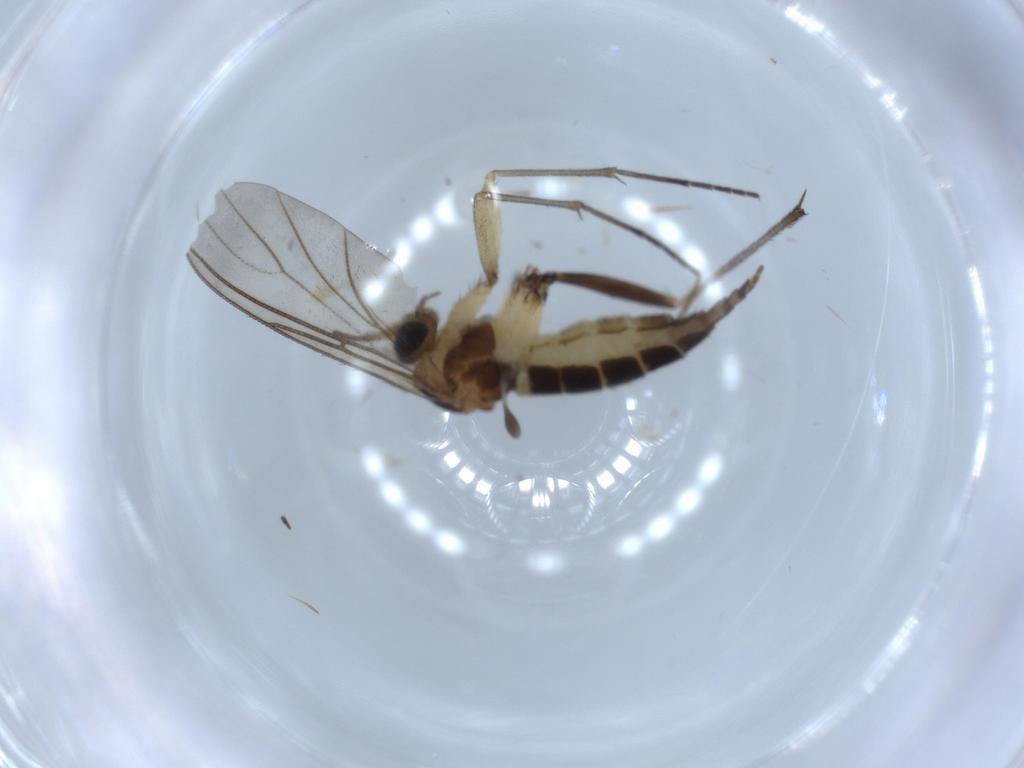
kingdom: Animalia
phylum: Arthropoda
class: Insecta
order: Diptera
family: Sciaridae
